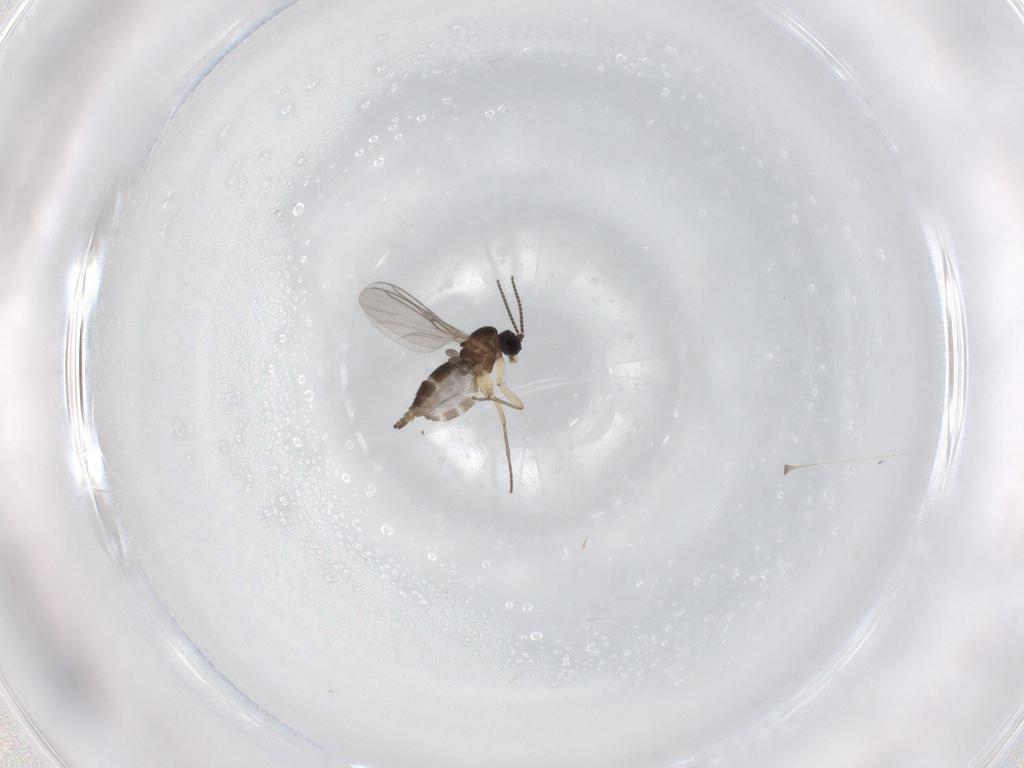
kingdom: Animalia
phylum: Arthropoda
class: Insecta
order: Diptera
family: Sciaridae
